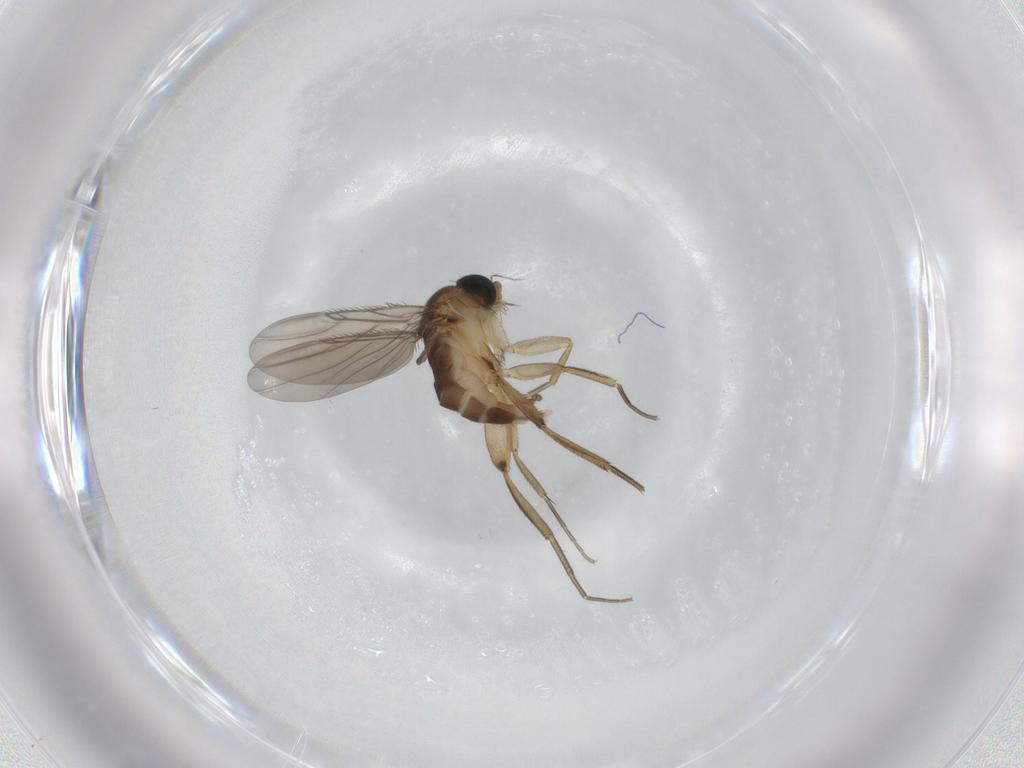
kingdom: Animalia
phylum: Arthropoda
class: Insecta
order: Diptera
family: Phoridae
